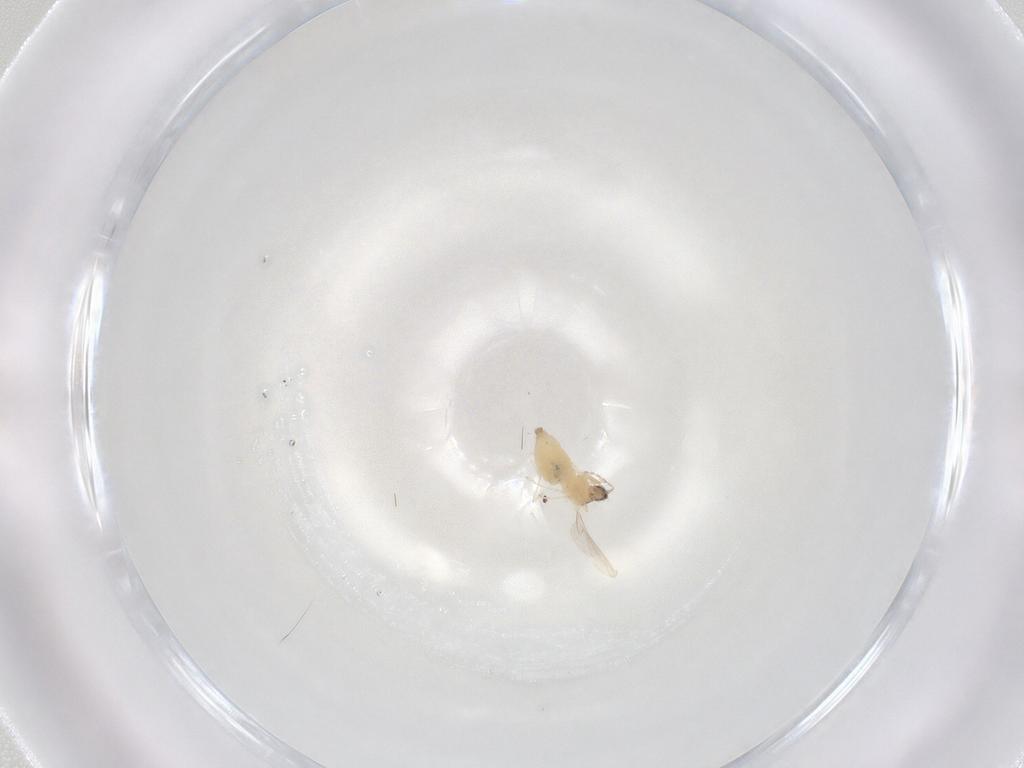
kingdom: Animalia
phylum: Arthropoda
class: Insecta
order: Diptera
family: Cecidomyiidae
